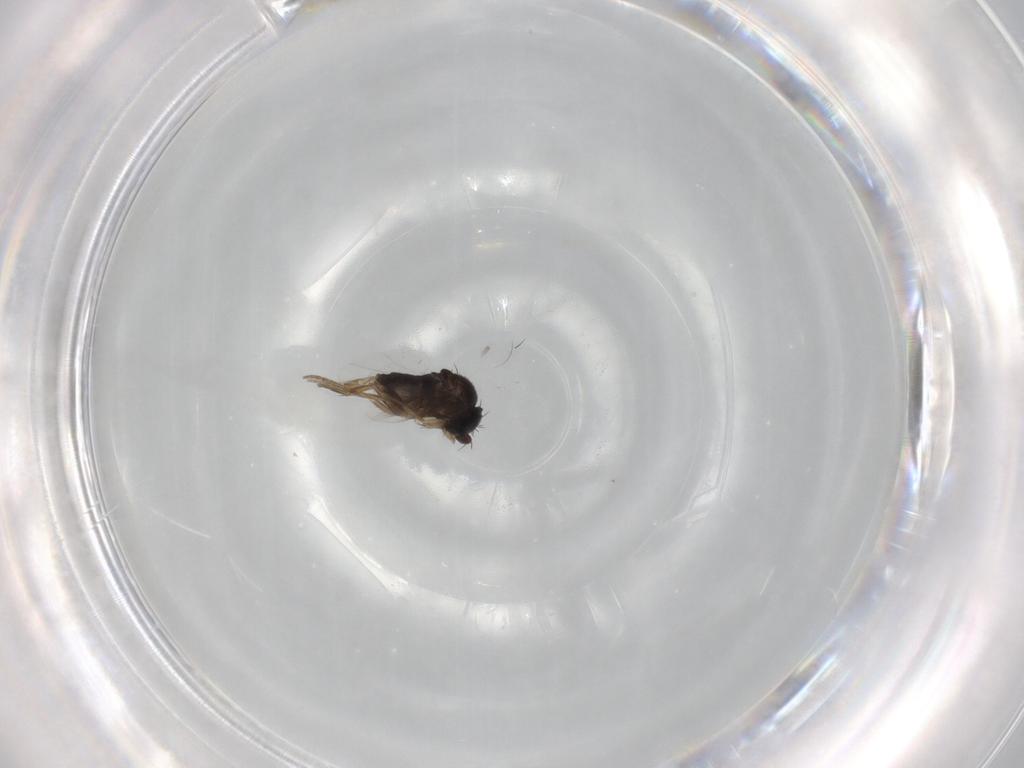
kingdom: Animalia
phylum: Arthropoda
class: Insecta
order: Diptera
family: Phoridae
